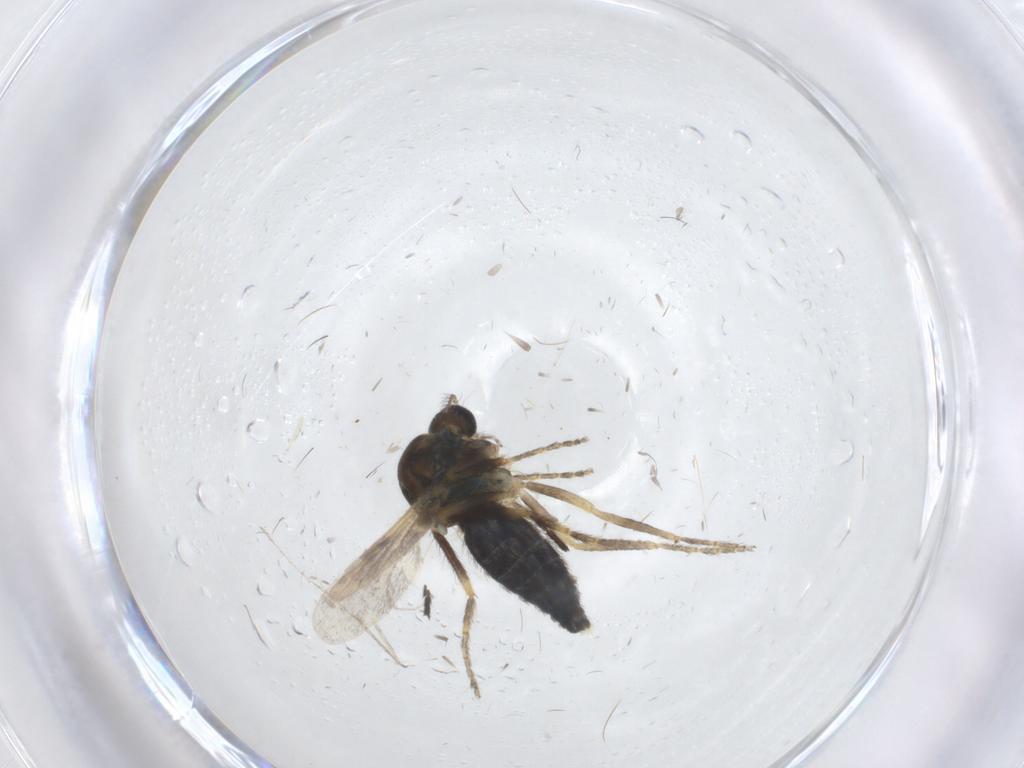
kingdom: Animalia
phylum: Arthropoda
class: Insecta
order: Diptera
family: Ceratopogonidae
